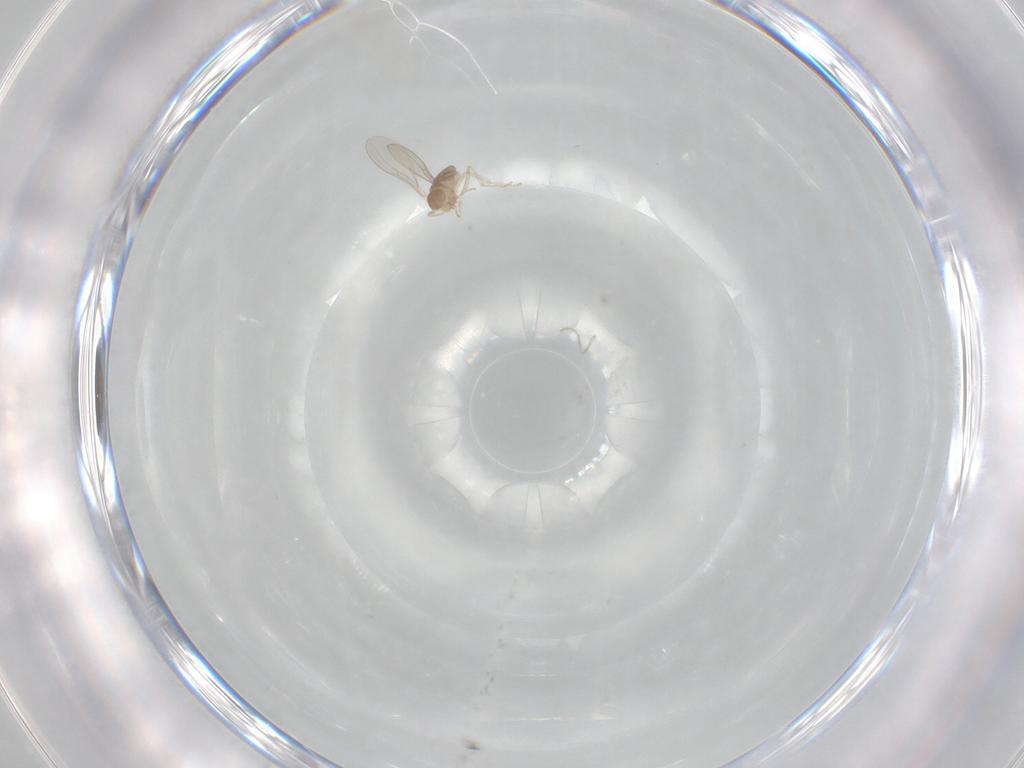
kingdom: Animalia
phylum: Arthropoda
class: Insecta
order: Diptera
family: Cecidomyiidae
